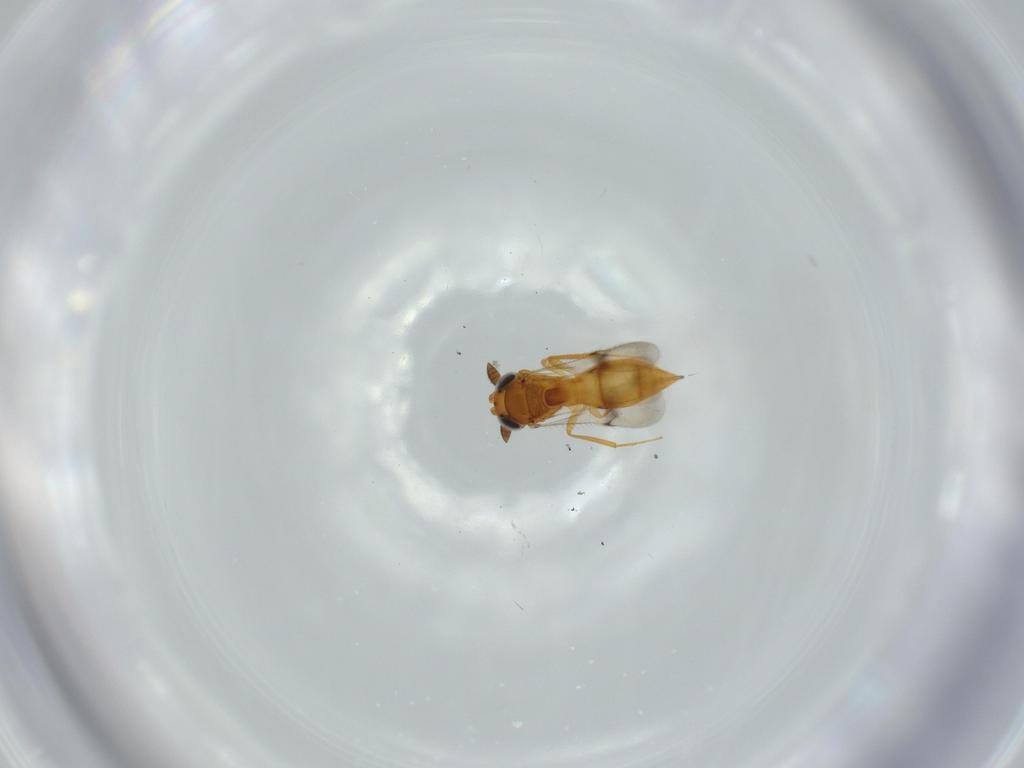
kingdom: Animalia
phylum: Arthropoda
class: Insecta
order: Hymenoptera
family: Scelionidae
